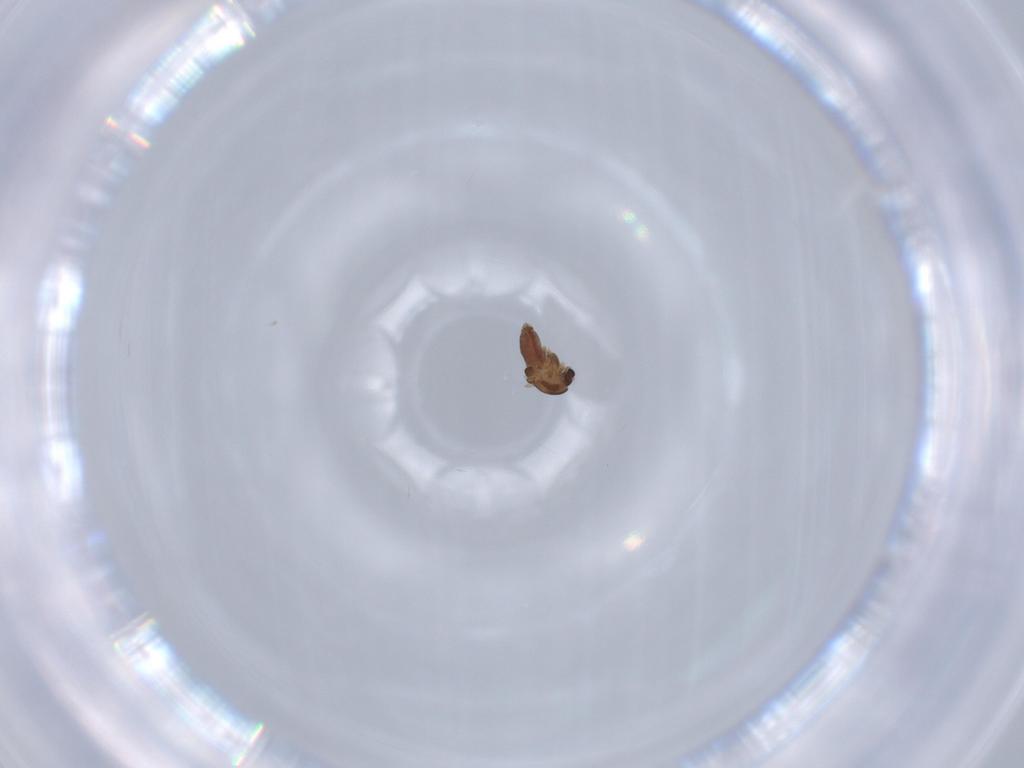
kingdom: Animalia
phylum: Arthropoda
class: Insecta
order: Diptera
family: Chironomidae
